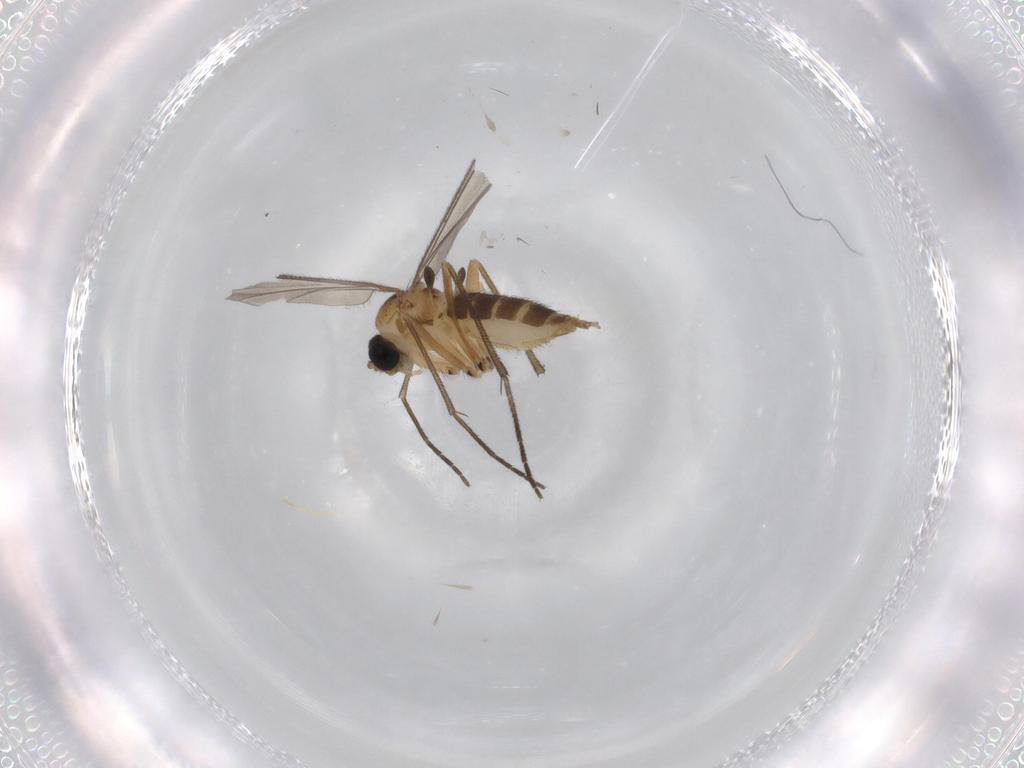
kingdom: Animalia
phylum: Arthropoda
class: Insecta
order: Diptera
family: Sciaridae
